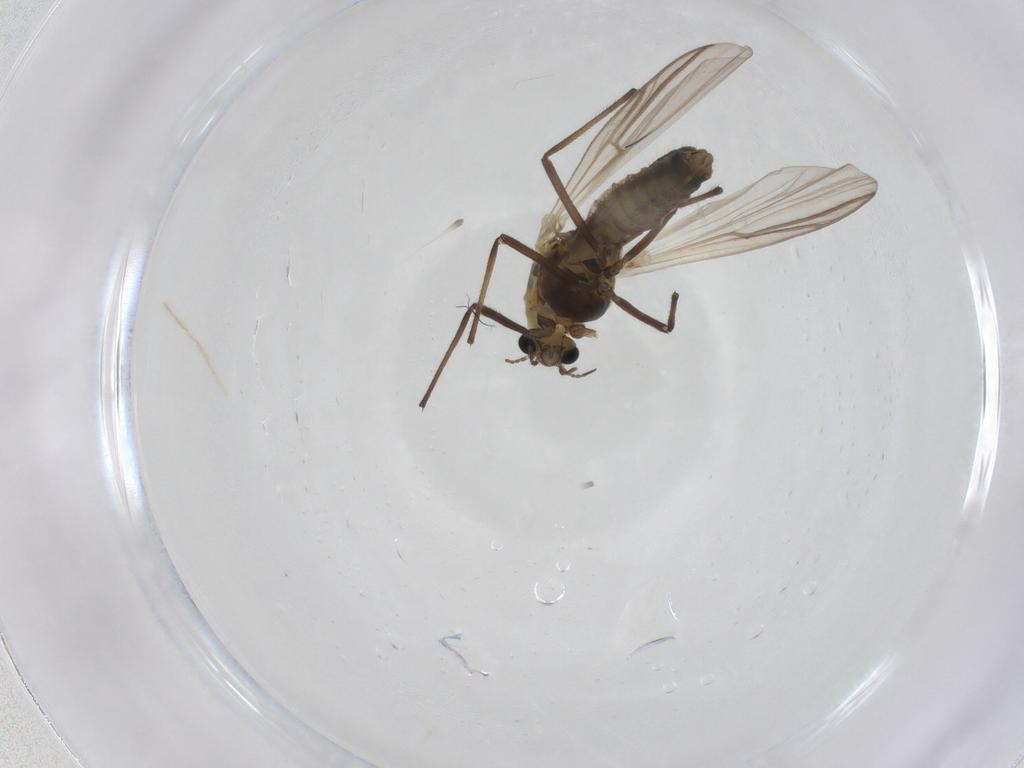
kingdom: Animalia
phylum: Arthropoda
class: Insecta
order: Diptera
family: Chironomidae
